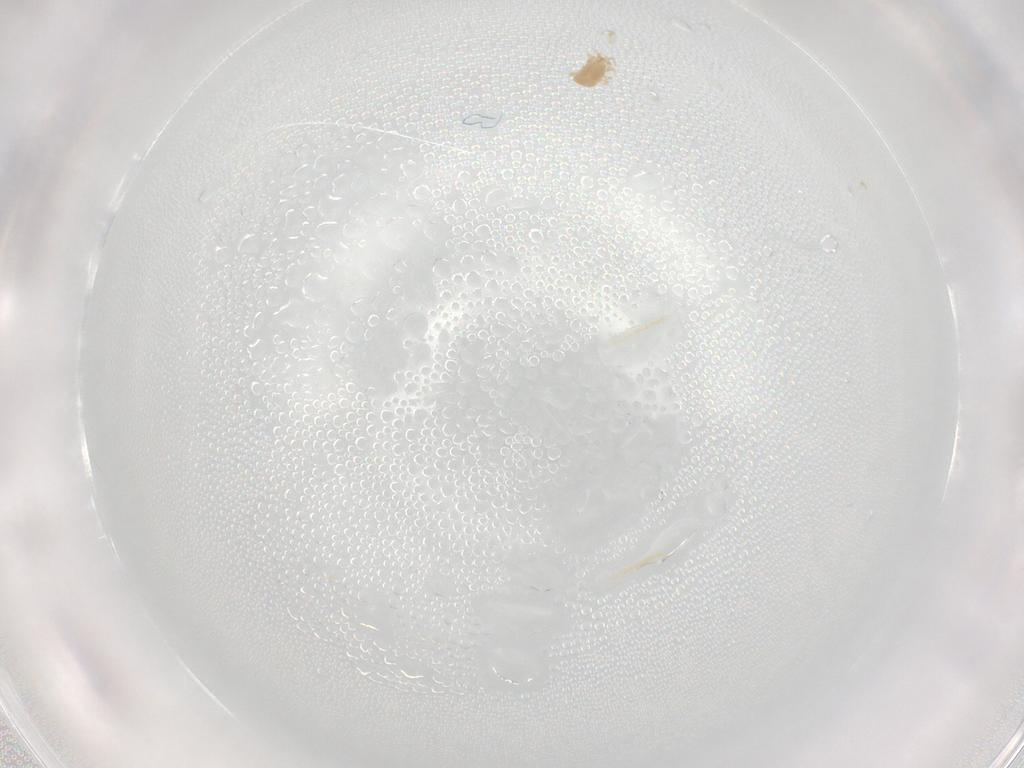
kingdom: Animalia
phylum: Arthropoda
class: Arachnida
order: Mesostigmata
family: Ascidae
